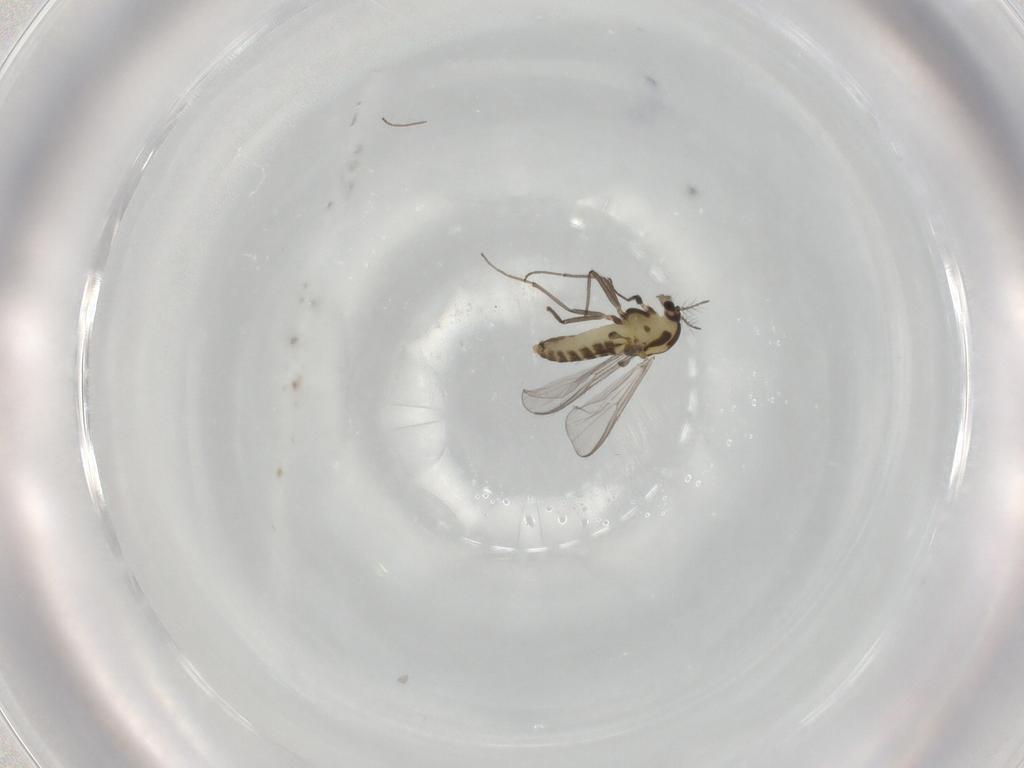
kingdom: Animalia
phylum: Arthropoda
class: Insecta
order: Diptera
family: Chironomidae
